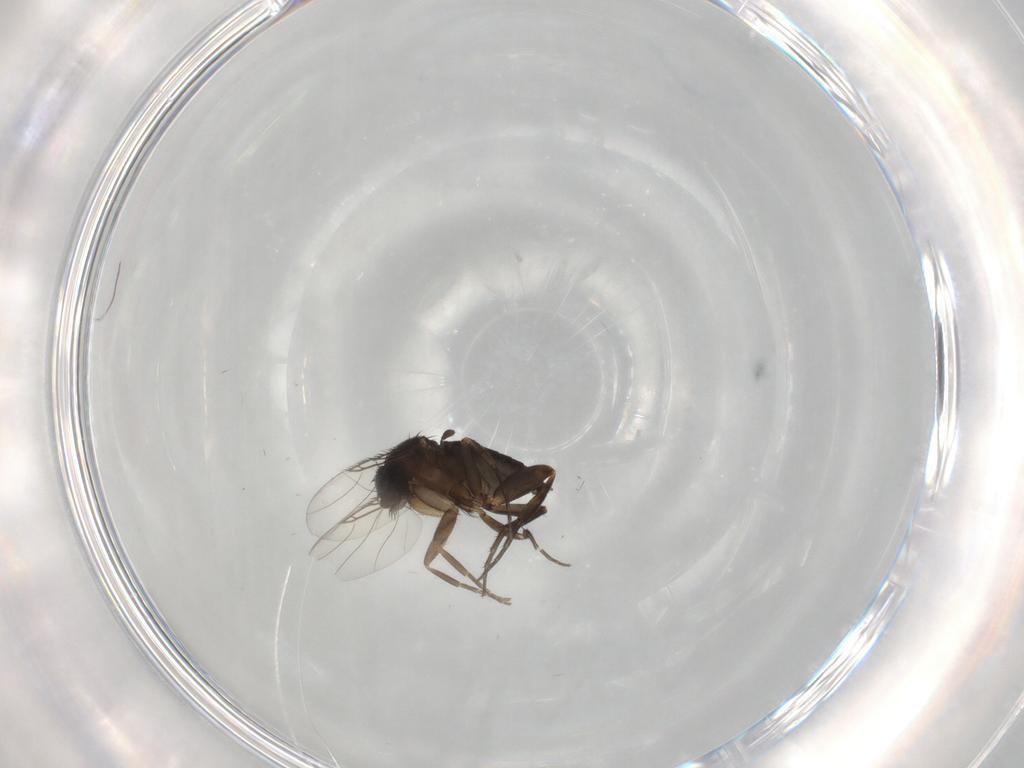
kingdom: Animalia
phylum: Arthropoda
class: Insecta
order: Diptera
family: Phoridae
